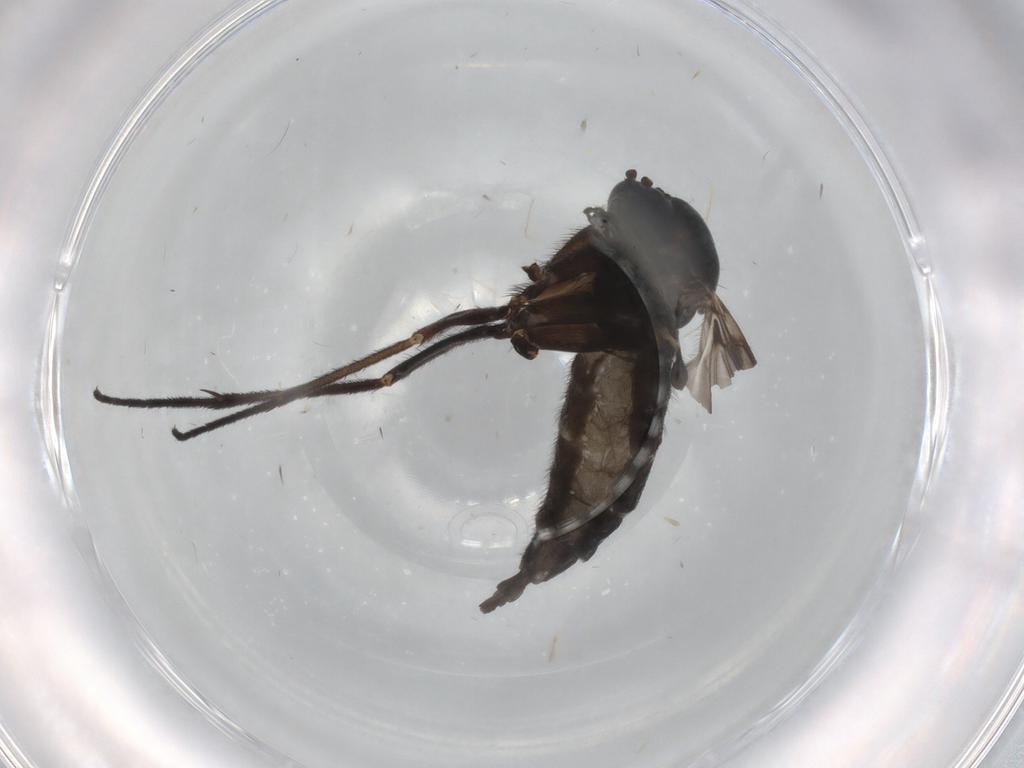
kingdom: Animalia
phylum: Arthropoda
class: Insecta
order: Diptera
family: Sciaridae
